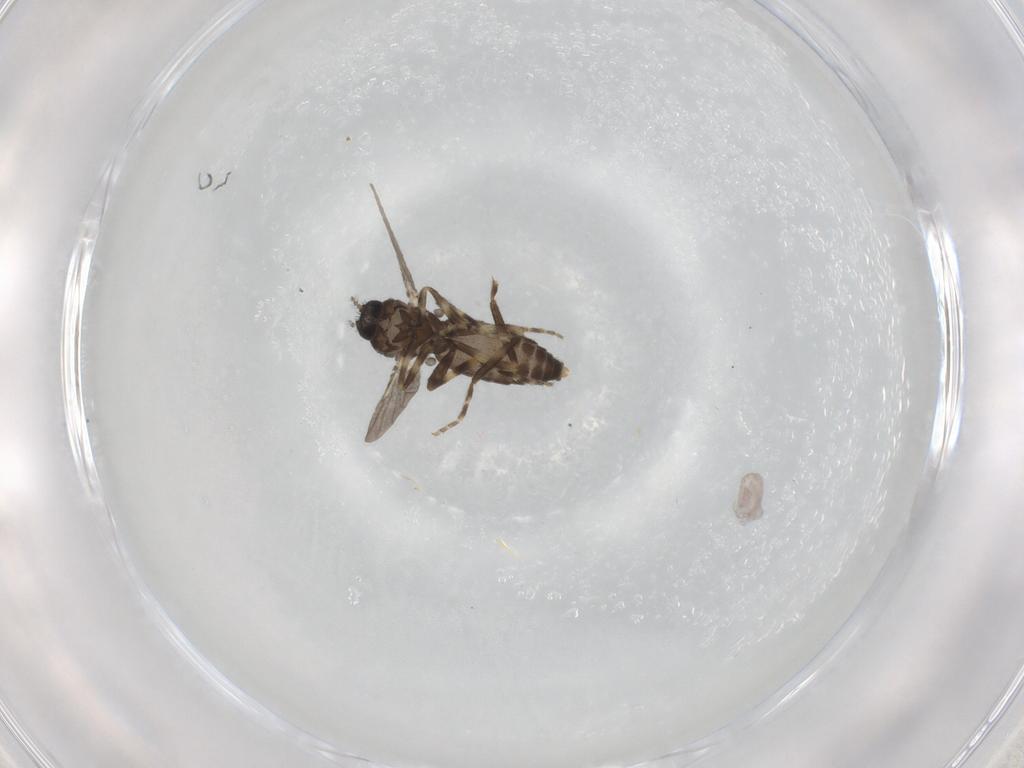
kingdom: Animalia
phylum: Arthropoda
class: Insecta
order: Diptera
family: Ceratopogonidae
